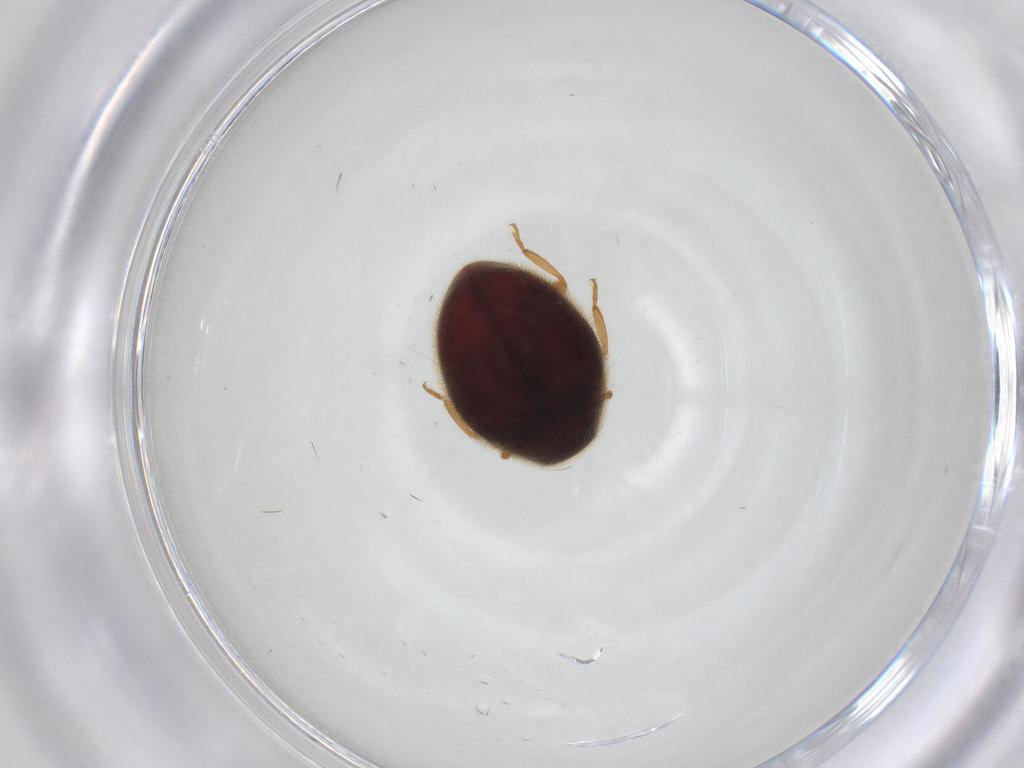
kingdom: Animalia
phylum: Arthropoda
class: Insecta
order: Coleoptera
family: Coccinellidae
